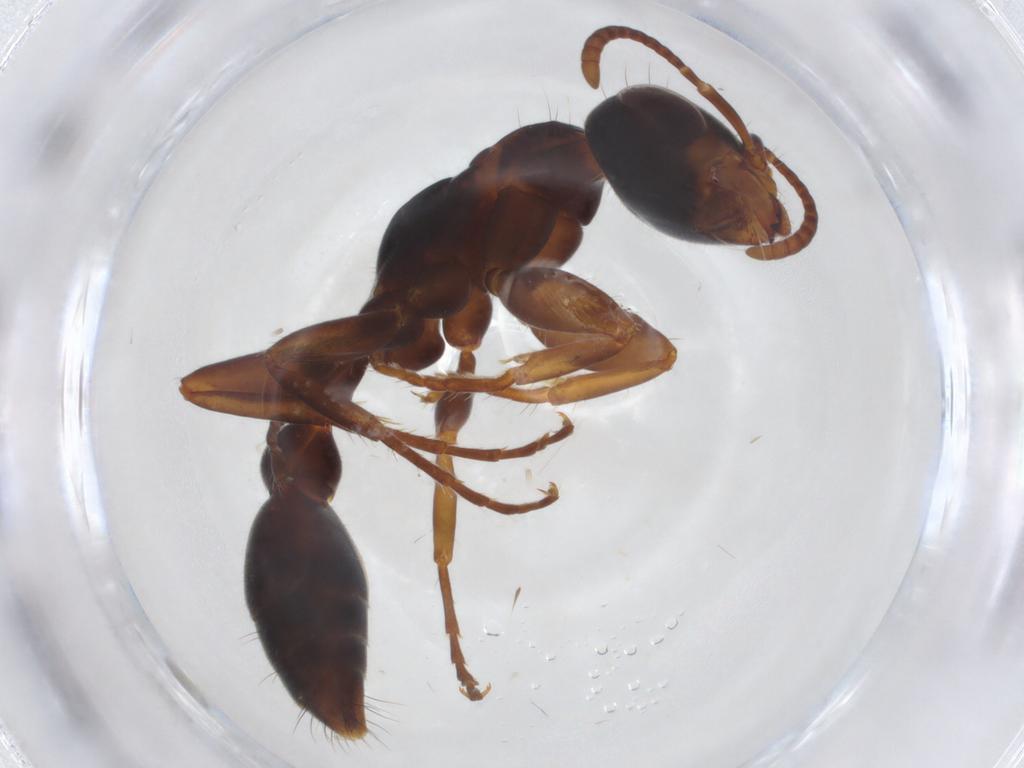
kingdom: Animalia
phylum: Arthropoda
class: Insecta
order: Hymenoptera
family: Formicidae
